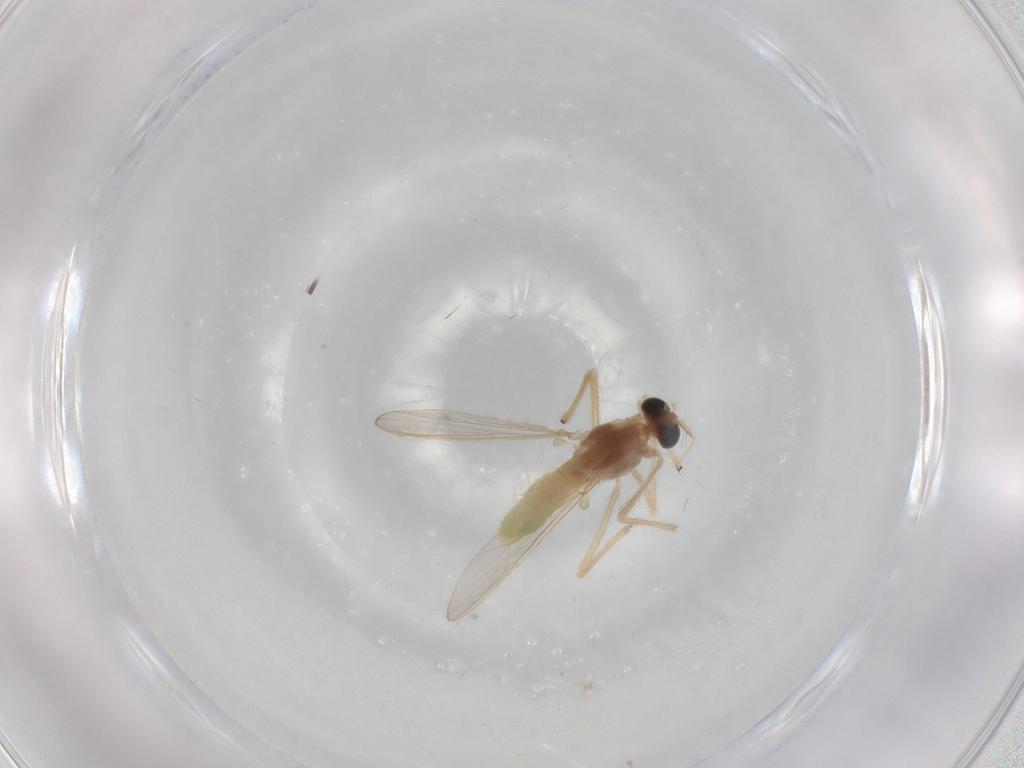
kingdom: Animalia
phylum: Arthropoda
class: Insecta
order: Diptera
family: Chironomidae
